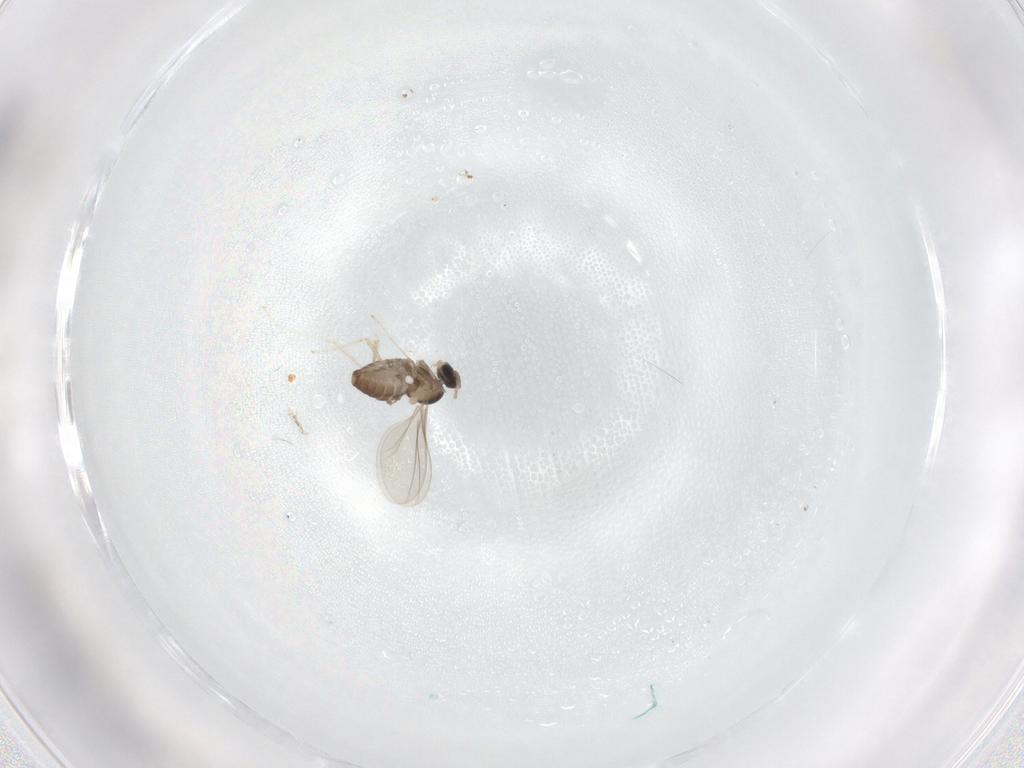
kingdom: Animalia
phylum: Arthropoda
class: Insecta
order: Diptera
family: Cecidomyiidae
